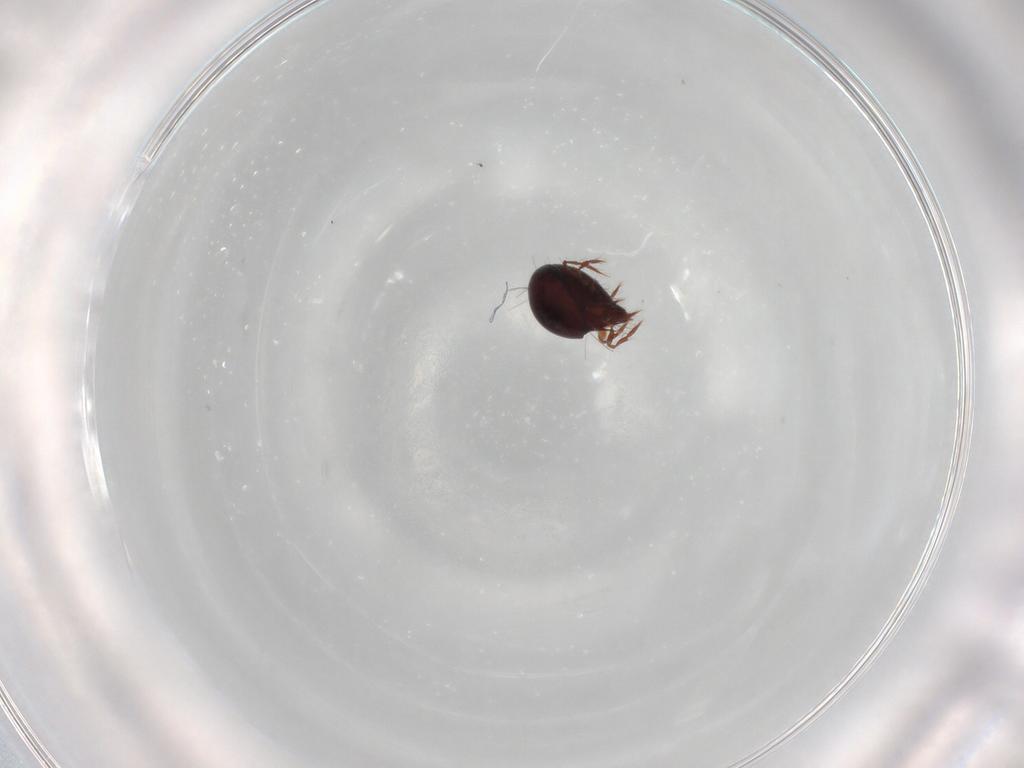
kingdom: Animalia
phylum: Arthropoda
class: Arachnida
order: Sarcoptiformes
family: Ceratoppiidae
